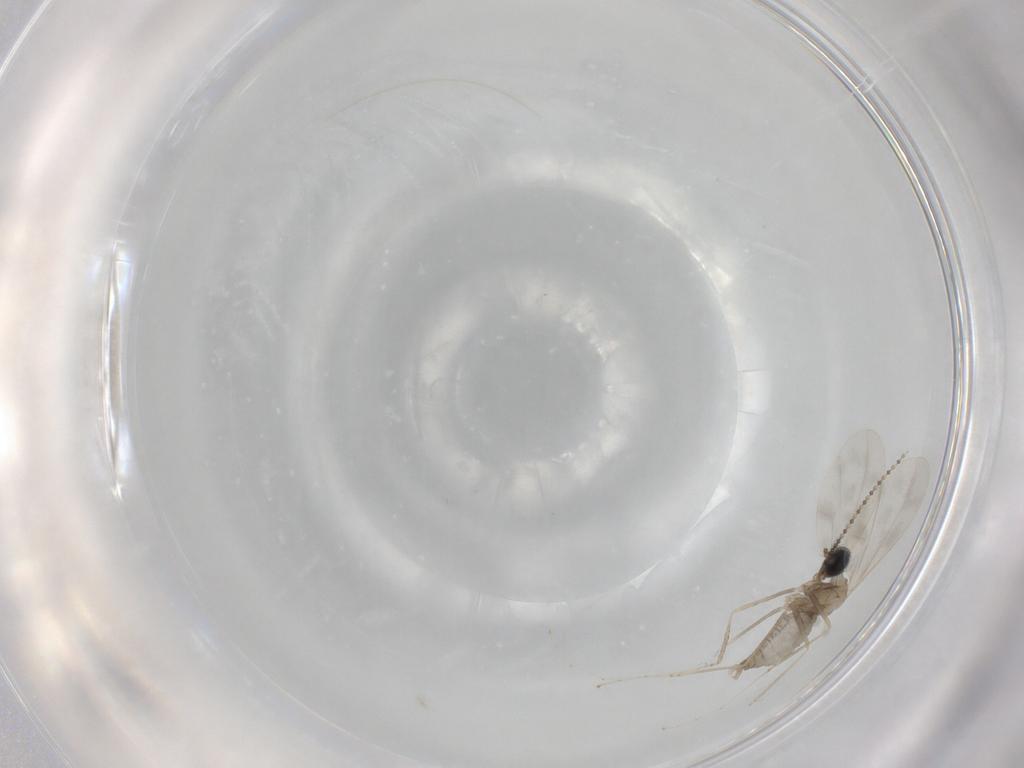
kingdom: Animalia
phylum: Arthropoda
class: Insecta
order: Diptera
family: Cecidomyiidae
